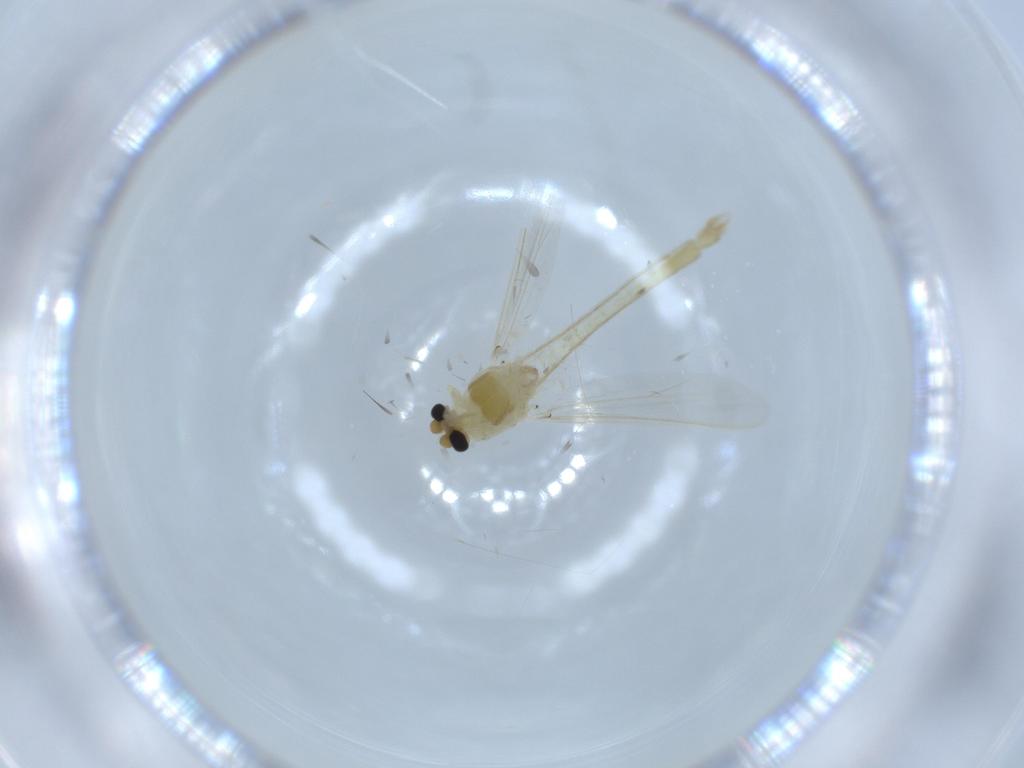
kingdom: Animalia
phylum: Arthropoda
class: Insecta
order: Diptera
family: Chironomidae
